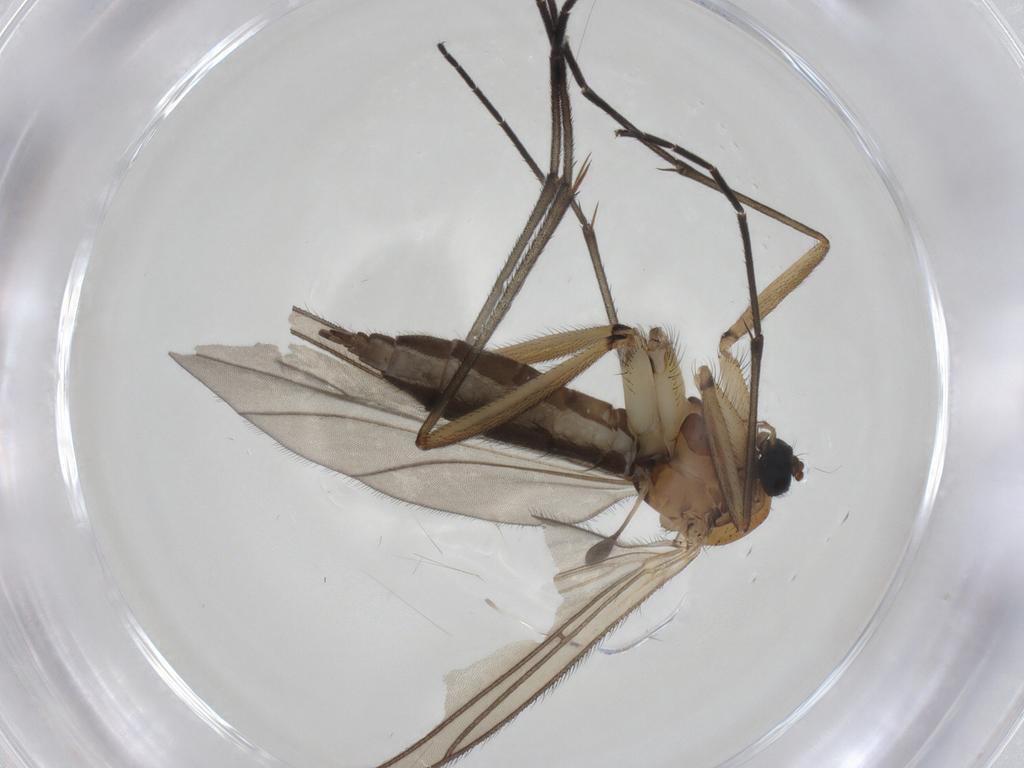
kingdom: Animalia
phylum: Arthropoda
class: Insecta
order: Diptera
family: Sciaridae
